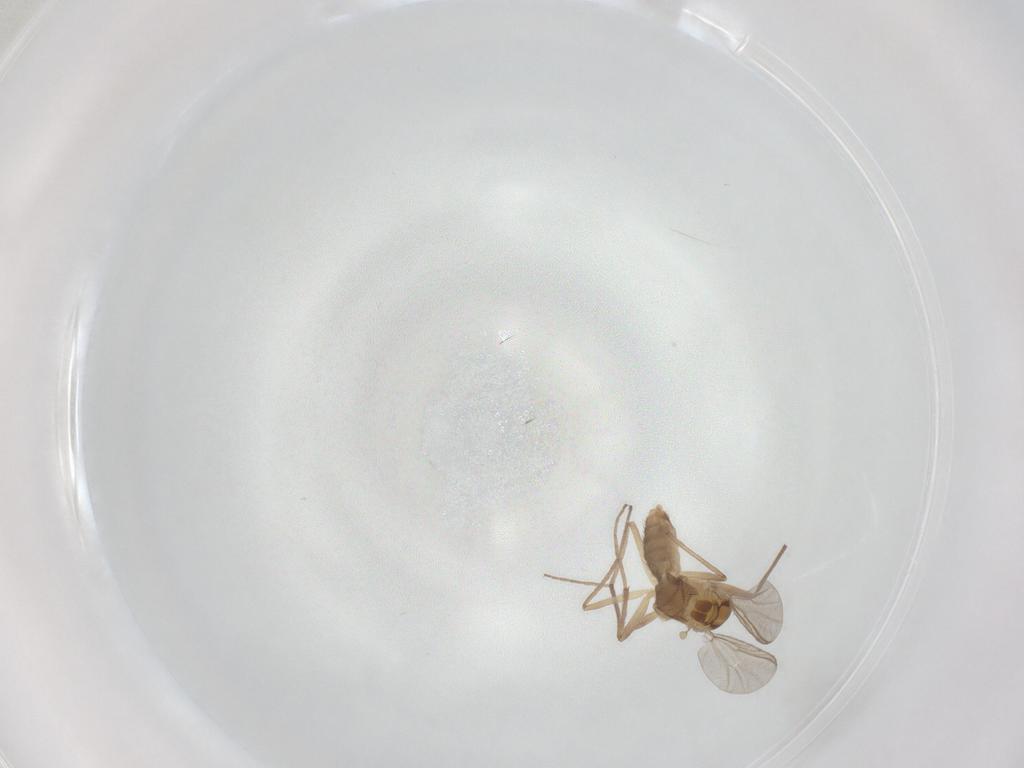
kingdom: Animalia
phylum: Arthropoda
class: Insecta
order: Diptera
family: Chironomidae
